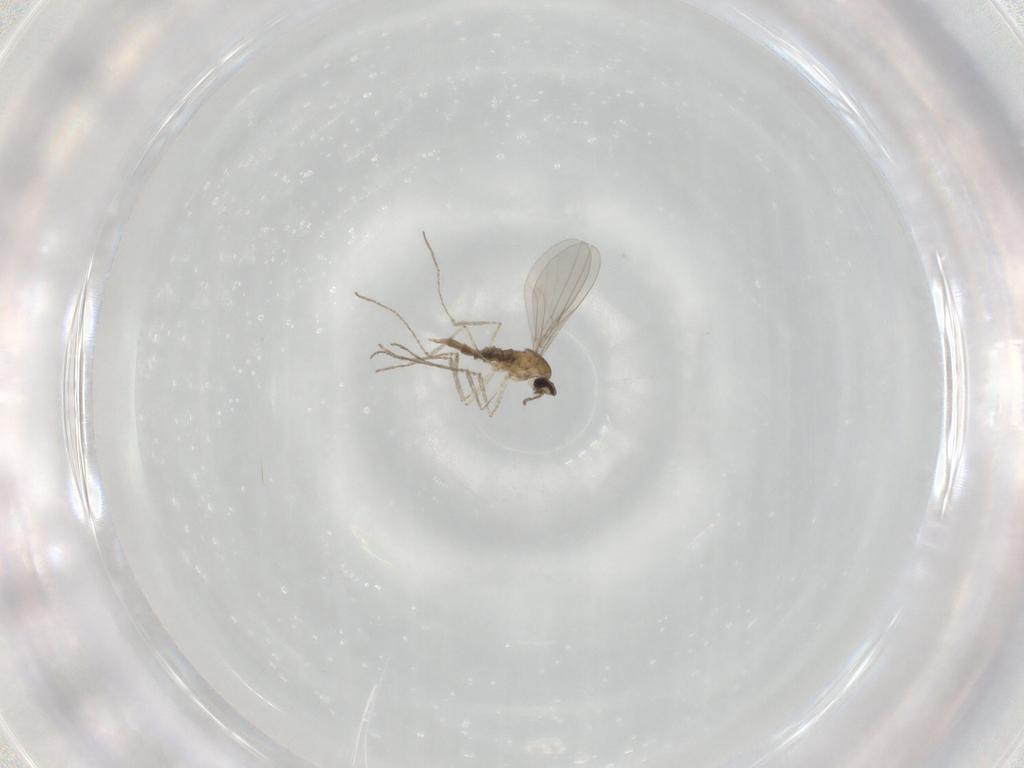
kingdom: Animalia
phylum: Arthropoda
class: Insecta
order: Diptera
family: Cecidomyiidae
